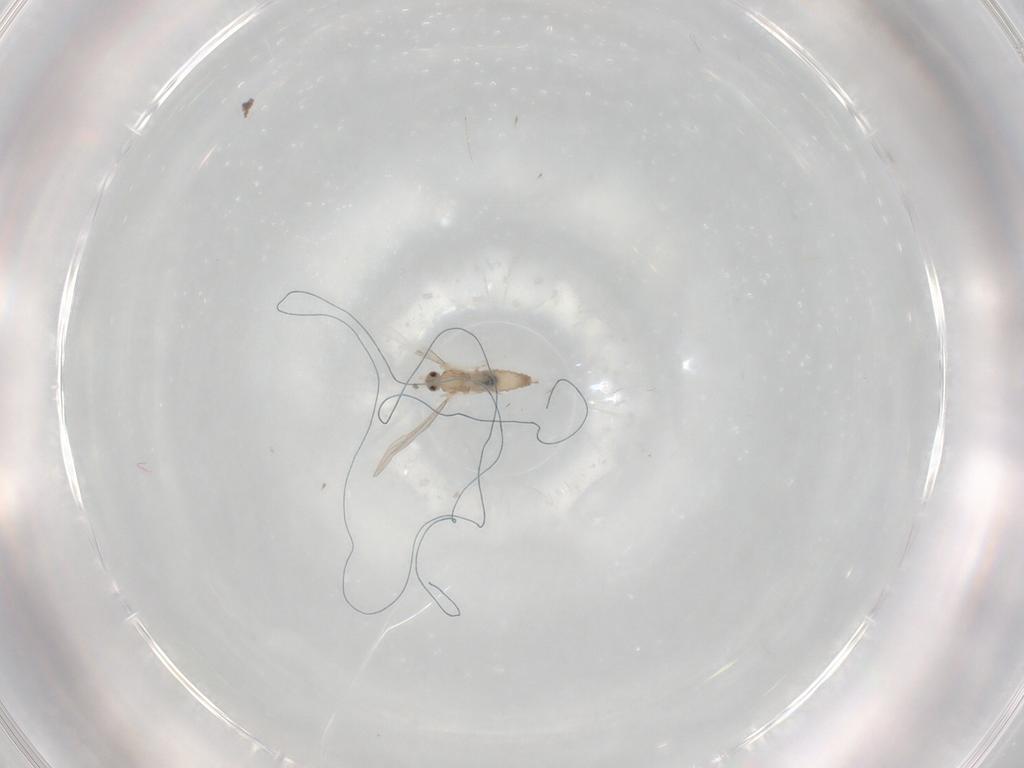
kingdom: Animalia
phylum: Arthropoda
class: Insecta
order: Diptera
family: Cecidomyiidae
